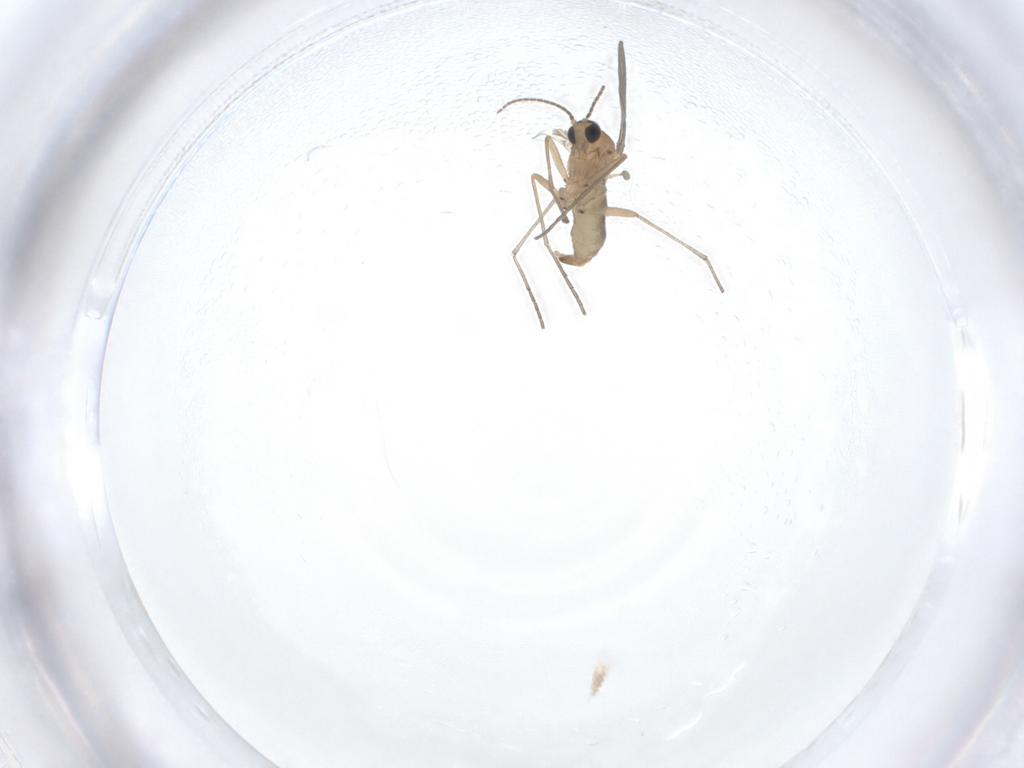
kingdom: Animalia
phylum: Arthropoda
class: Insecta
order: Diptera
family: Sciaridae
